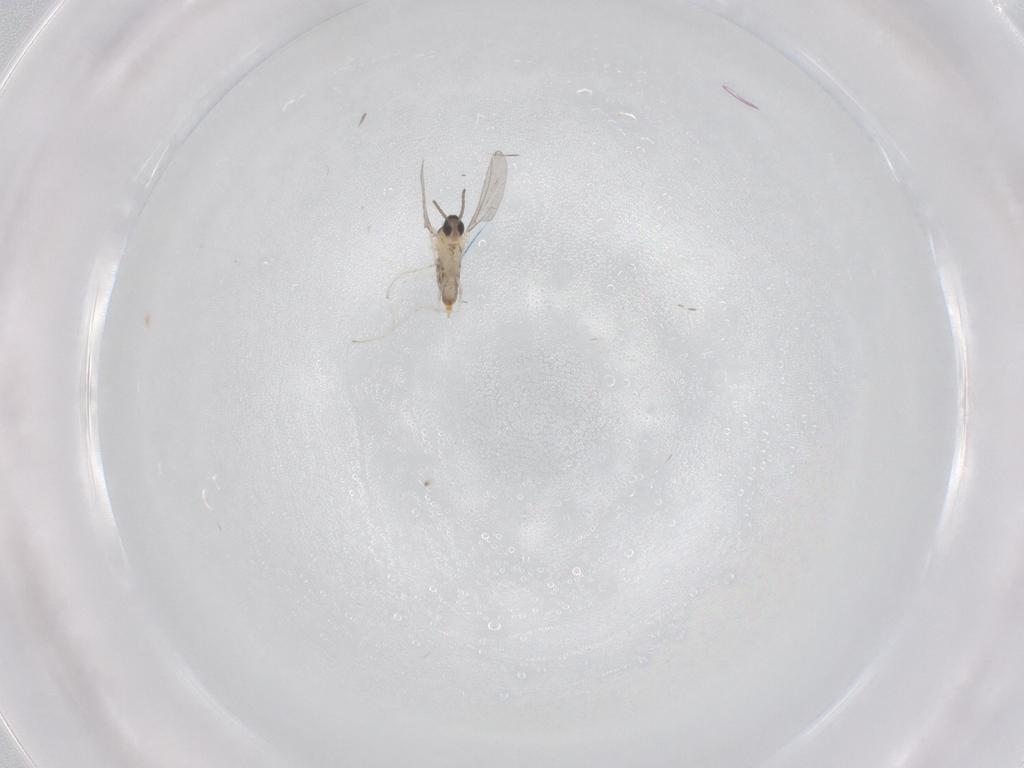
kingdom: Animalia
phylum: Arthropoda
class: Insecta
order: Diptera
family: Cecidomyiidae
